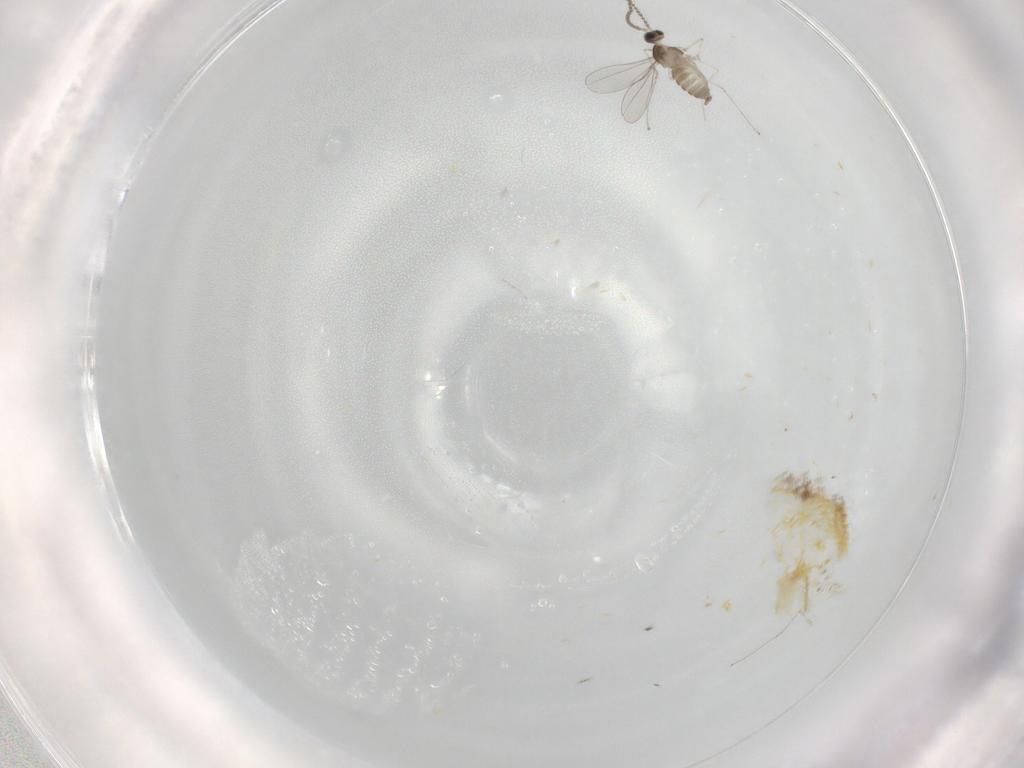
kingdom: Animalia
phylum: Arthropoda
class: Insecta
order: Diptera
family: Cecidomyiidae
